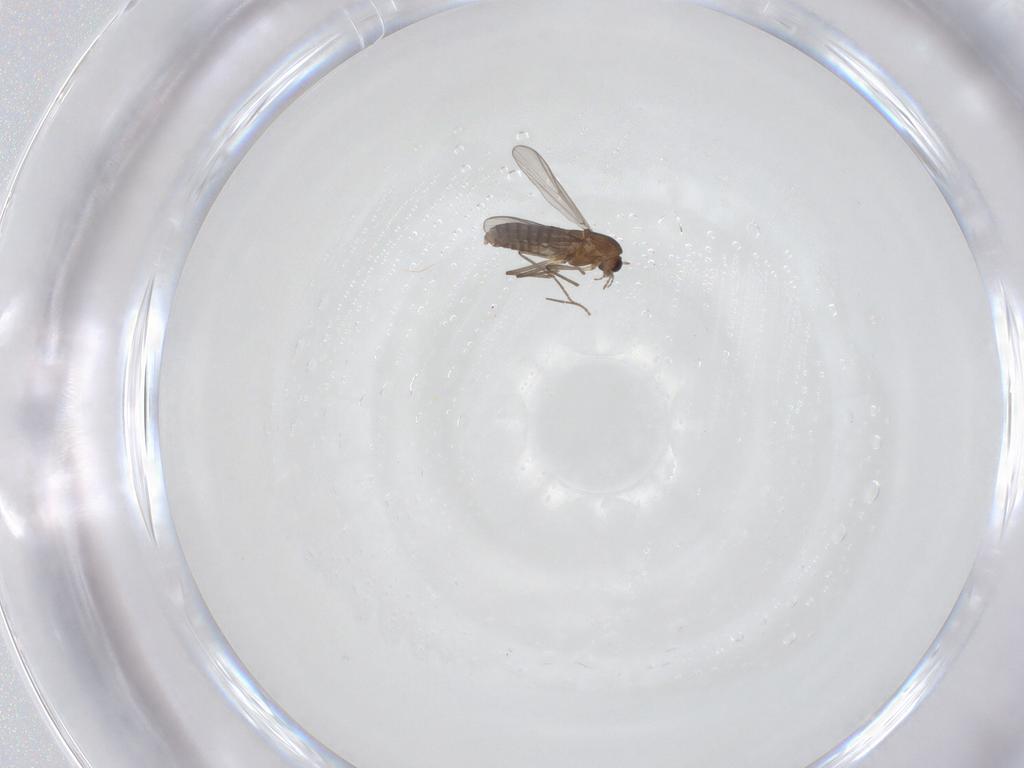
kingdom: Animalia
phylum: Arthropoda
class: Insecta
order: Diptera
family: Chironomidae
